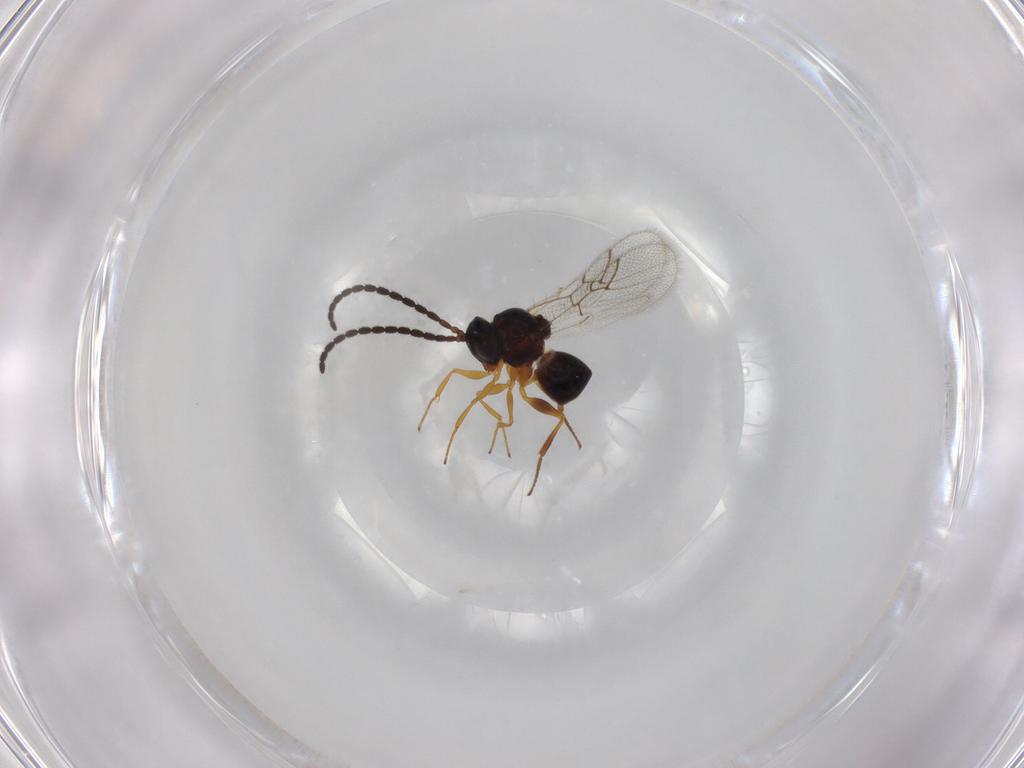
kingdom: Animalia
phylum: Arthropoda
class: Insecta
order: Hymenoptera
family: Figitidae
